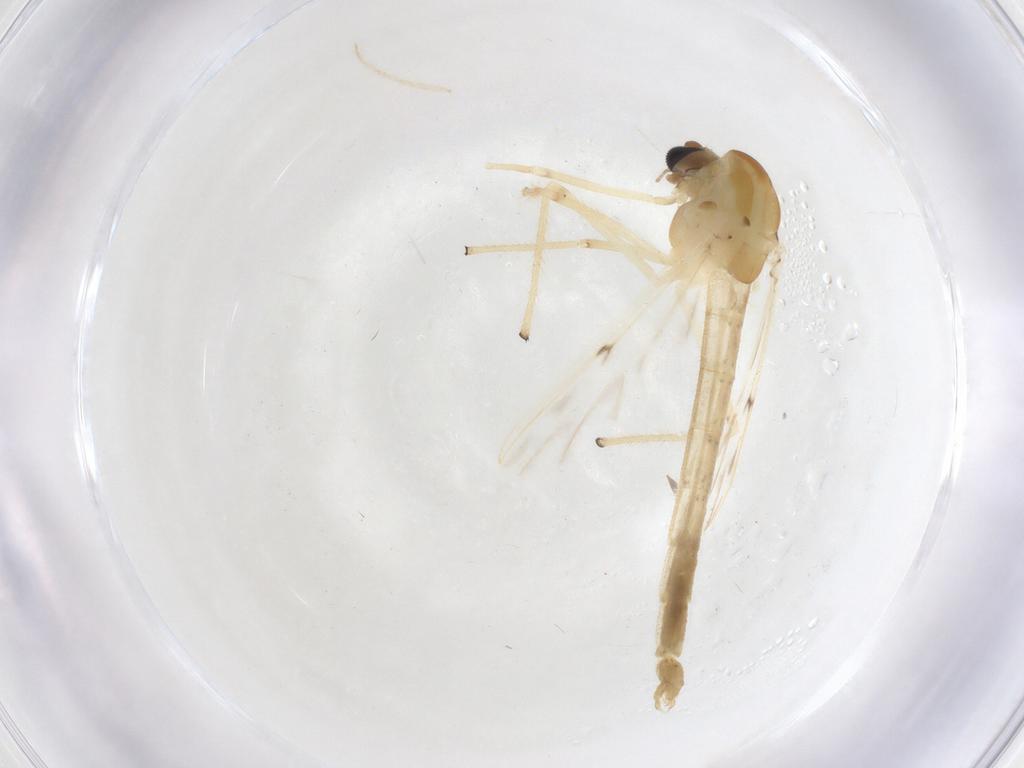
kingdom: Animalia
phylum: Arthropoda
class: Insecta
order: Diptera
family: Chironomidae
